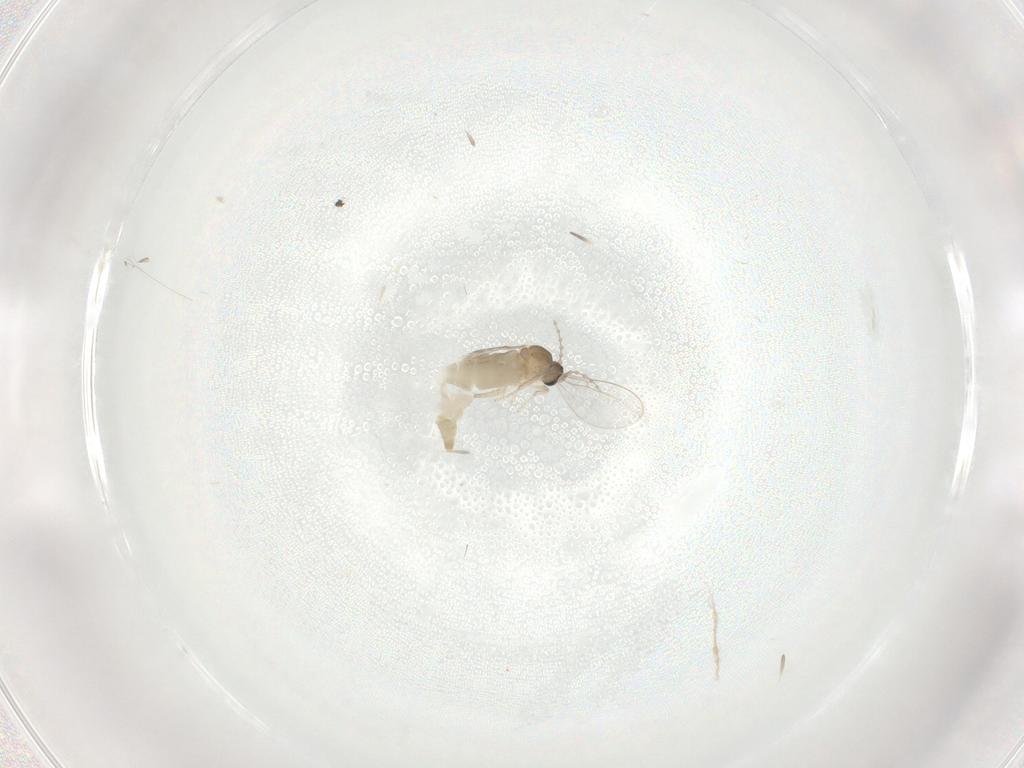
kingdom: Animalia
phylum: Arthropoda
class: Insecta
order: Diptera
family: Cecidomyiidae
